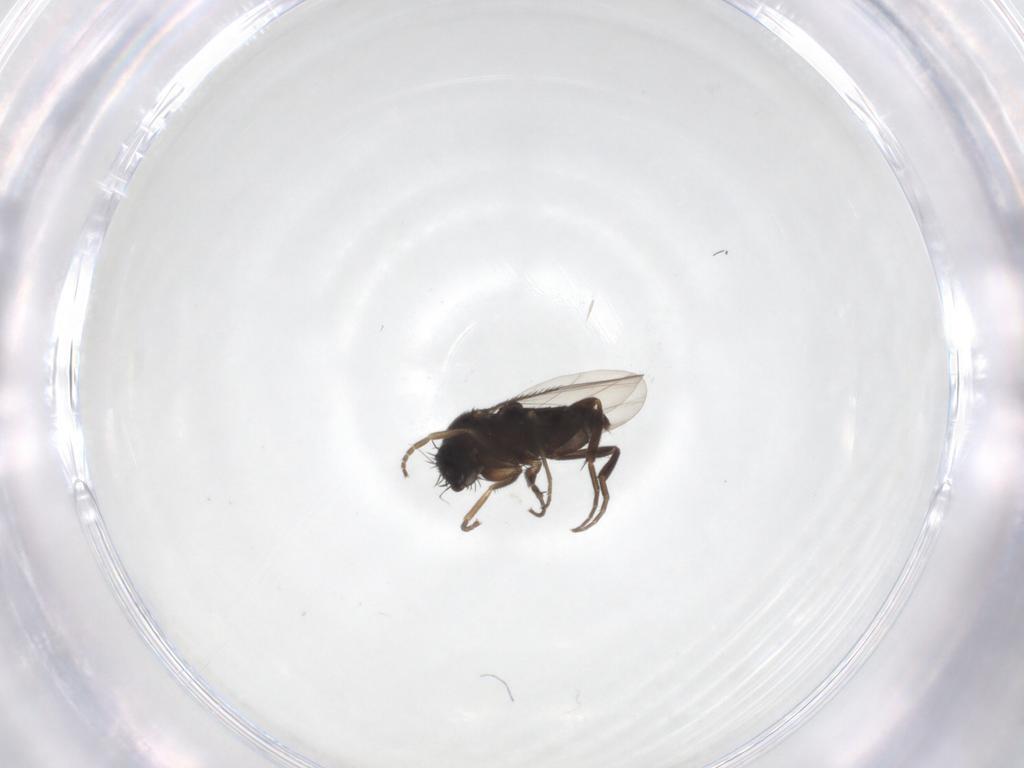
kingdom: Animalia
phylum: Arthropoda
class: Insecta
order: Diptera
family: Phoridae
